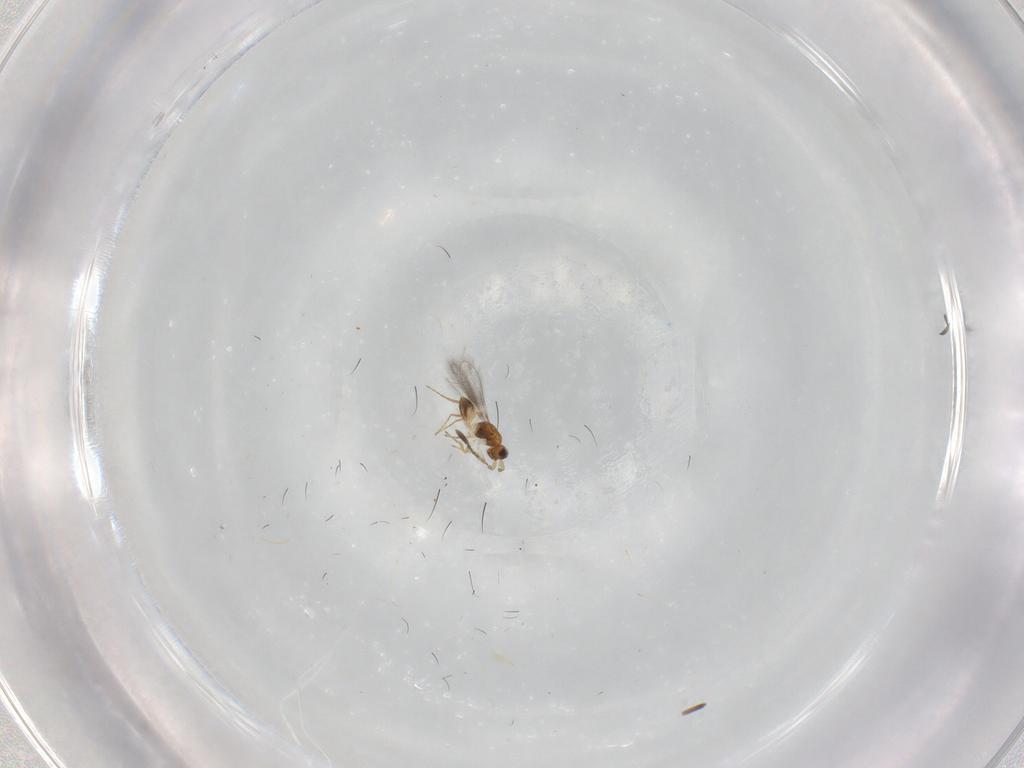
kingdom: Animalia
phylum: Arthropoda
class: Insecta
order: Hymenoptera
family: Mymaridae
